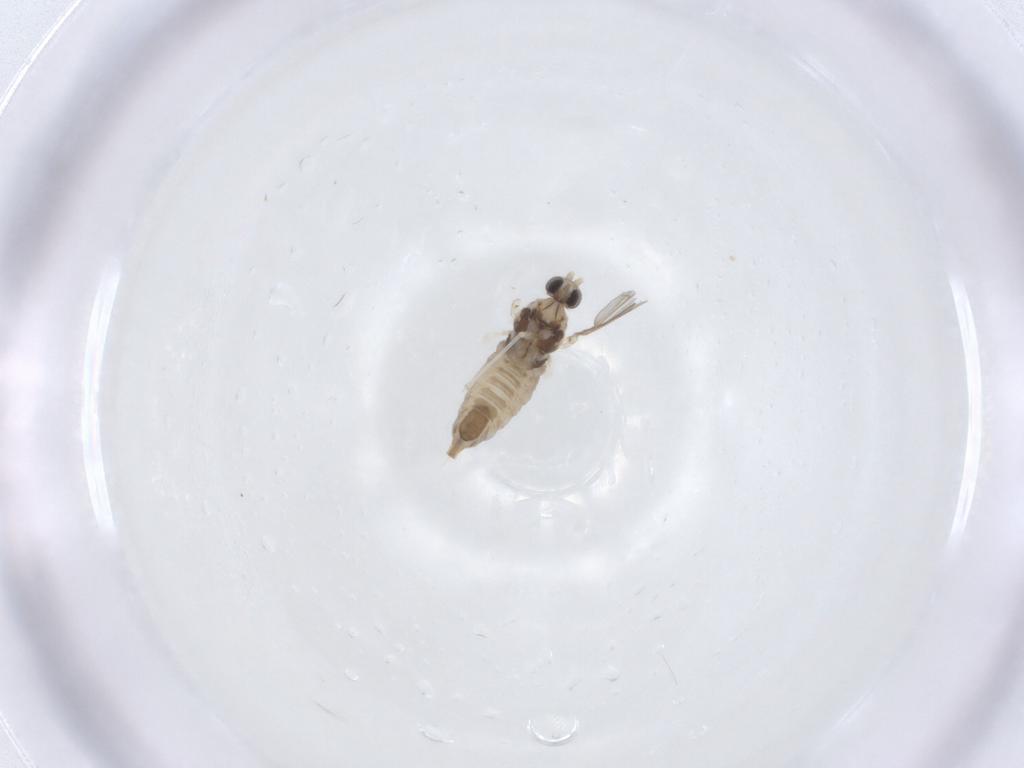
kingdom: Animalia
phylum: Arthropoda
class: Insecta
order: Diptera
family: Cecidomyiidae
